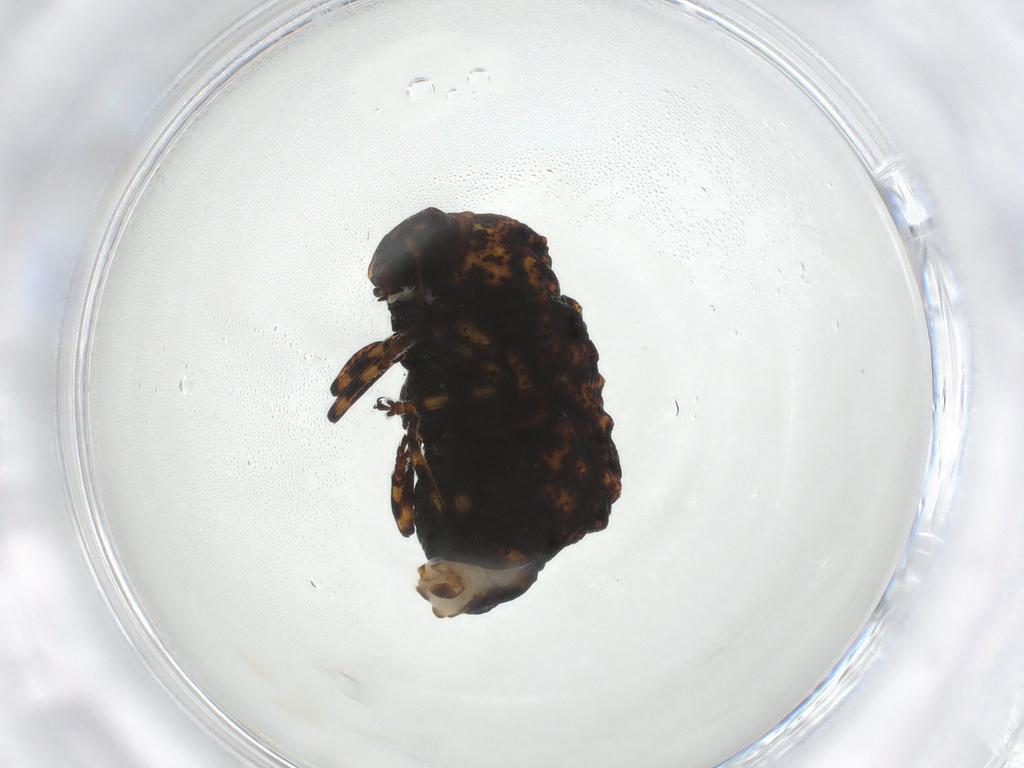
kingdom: Animalia
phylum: Arthropoda
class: Insecta
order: Coleoptera
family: Chrysomelidae
